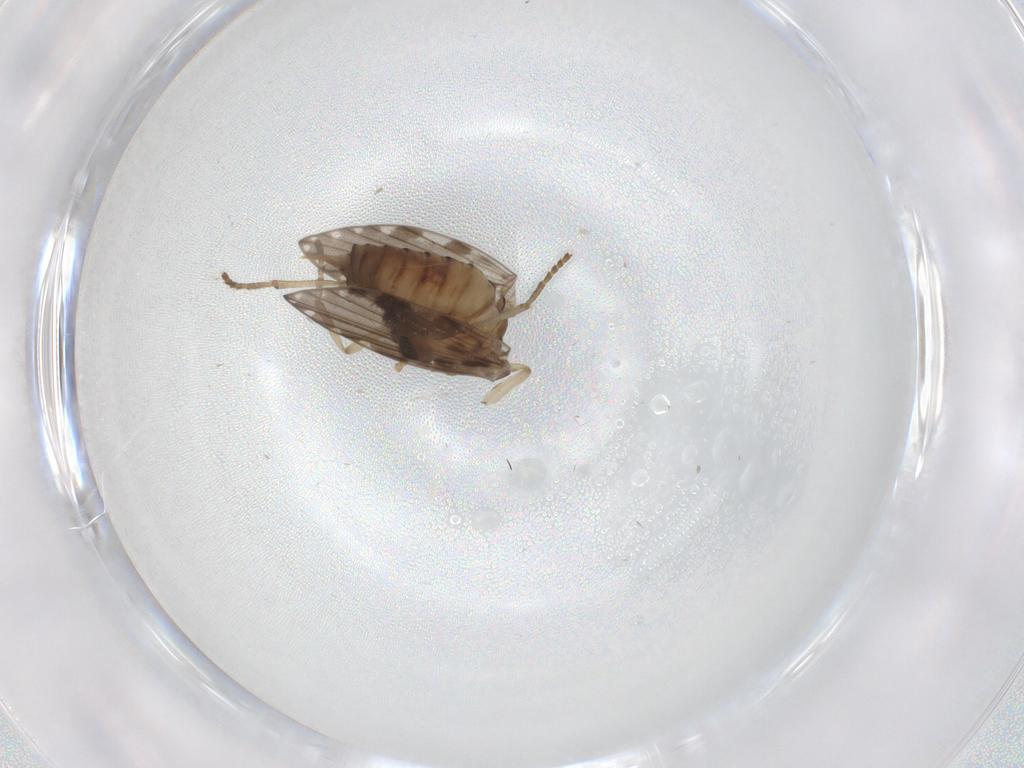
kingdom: Animalia
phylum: Arthropoda
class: Insecta
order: Diptera
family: Psychodidae
